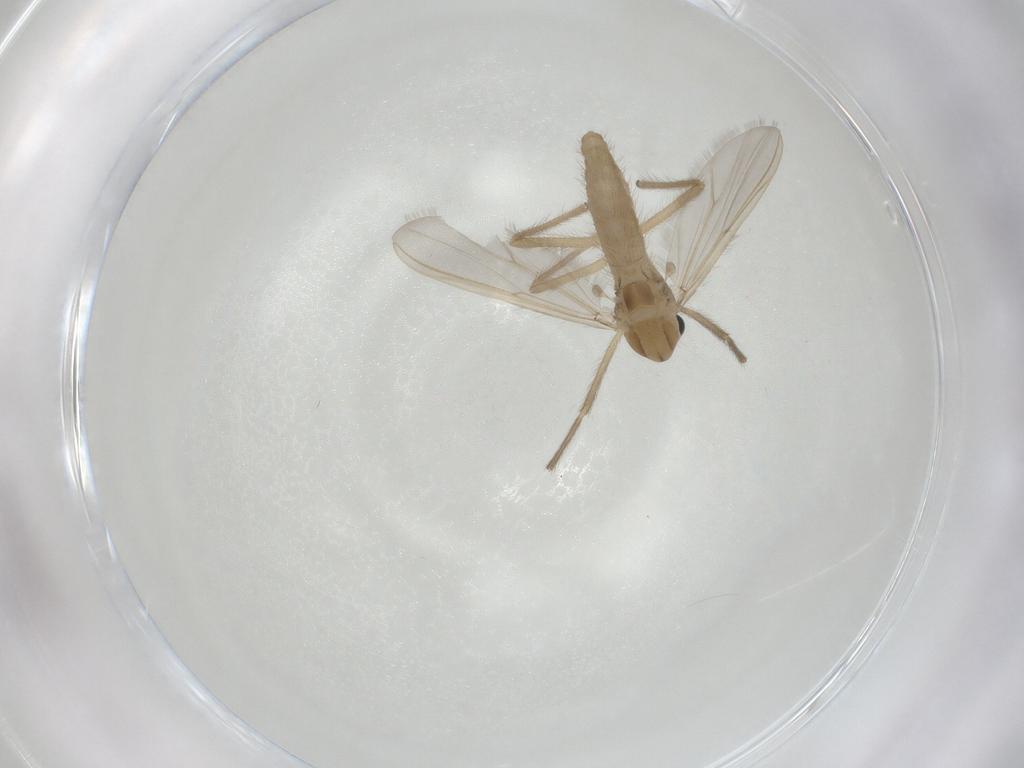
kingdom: Animalia
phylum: Arthropoda
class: Insecta
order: Diptera
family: Chironomidae
